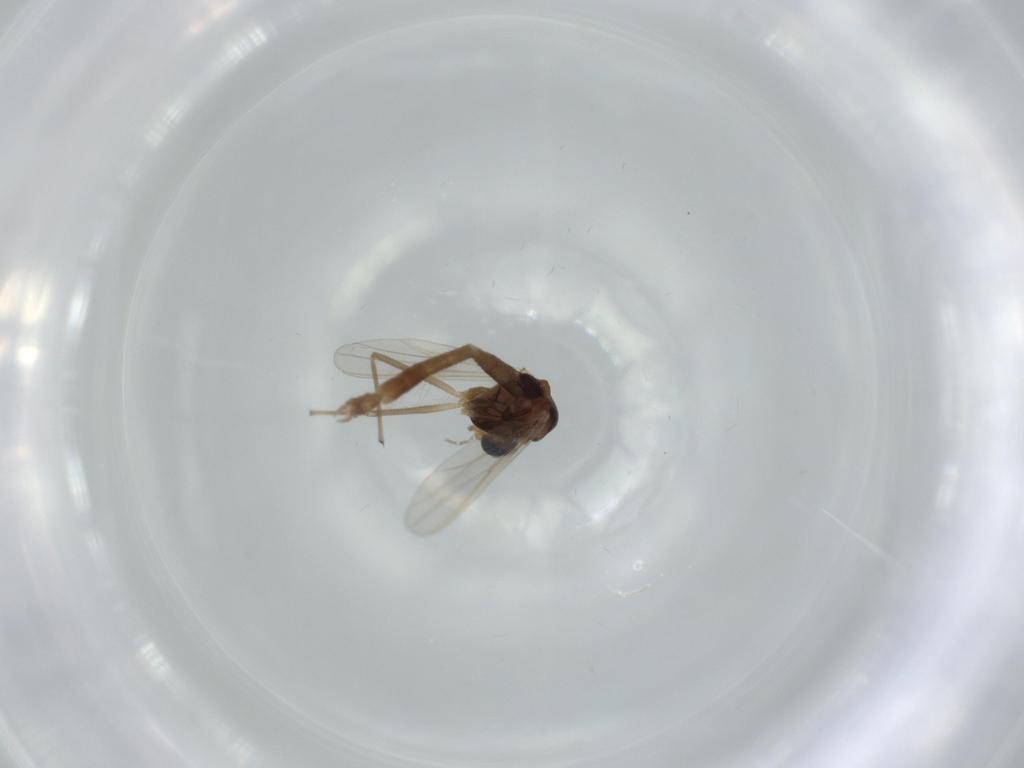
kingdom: Animalia
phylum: Arthropoda
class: Insecta
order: Diptera
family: Chironomidae
